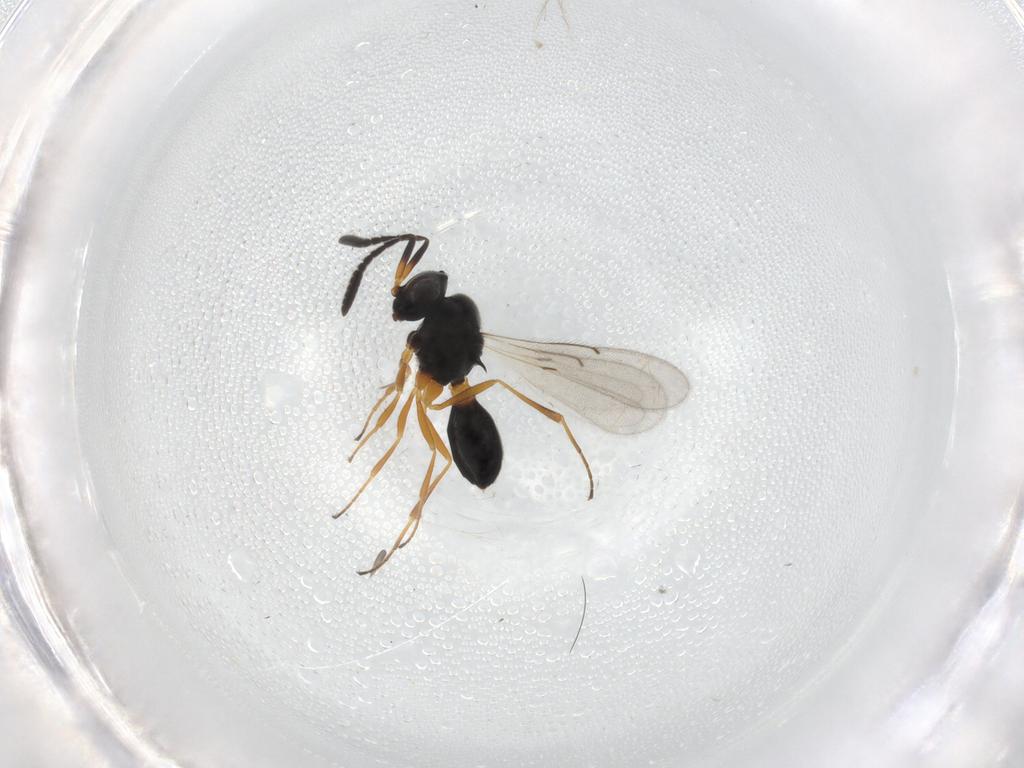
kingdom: Animalia
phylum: Arthropoda
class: Insecta
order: Hymenoptera
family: Scelionidae
